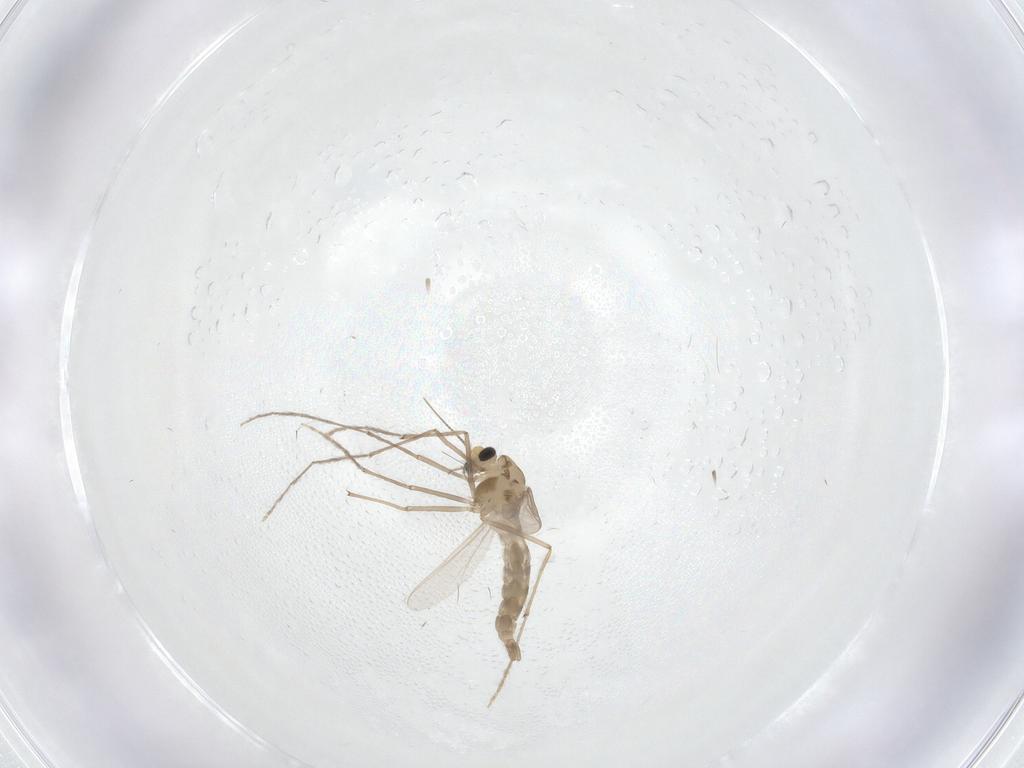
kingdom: Animalia
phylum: Arthropoda
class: Insecta
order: Diptera
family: Chironomidae
